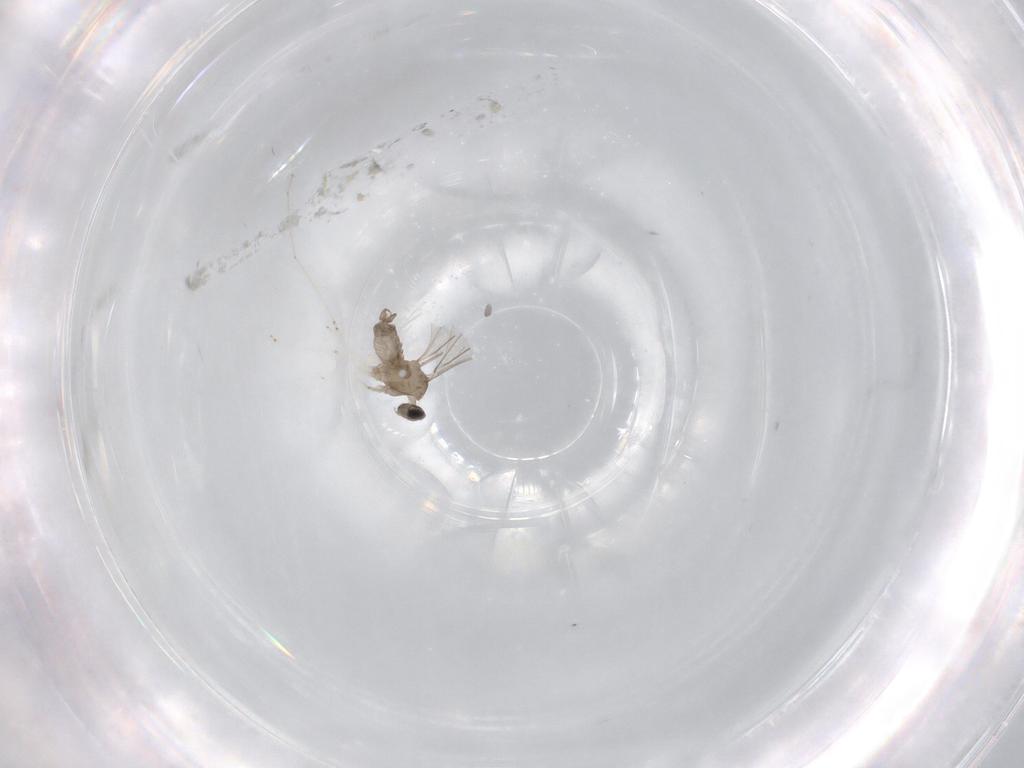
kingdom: Animalia
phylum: Arthropoda
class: Insecta
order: Diptera
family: Cecidomyiidae
